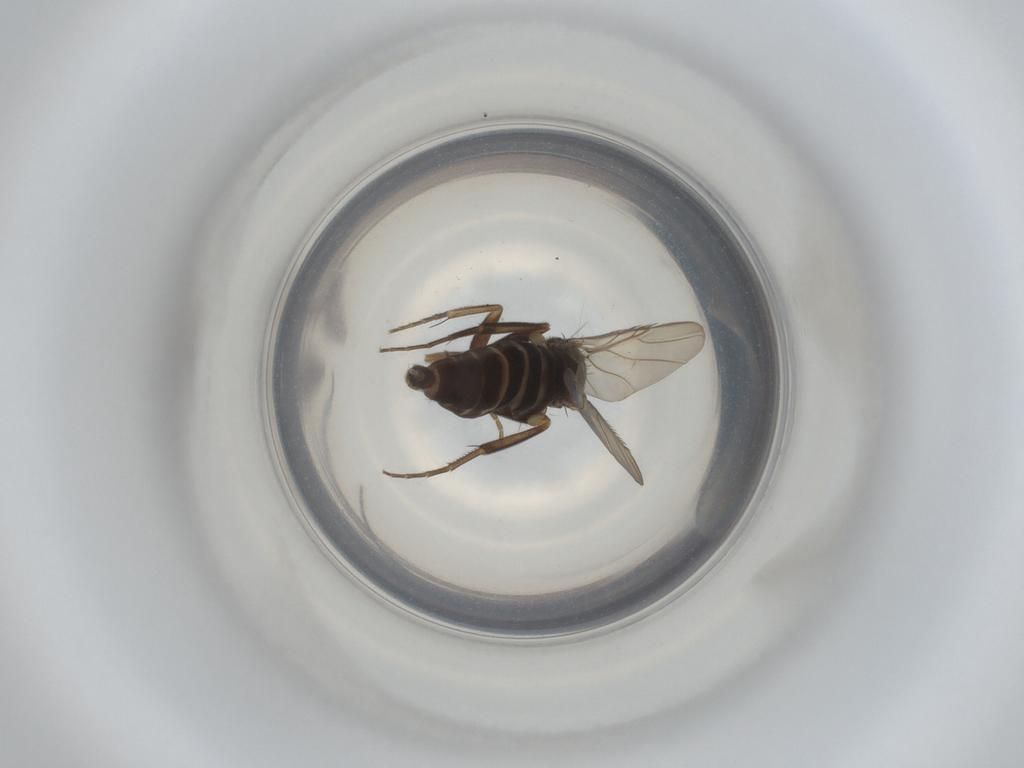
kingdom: Animalia
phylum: Arthropoda
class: Insecta
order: Diptera
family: Phoridae
